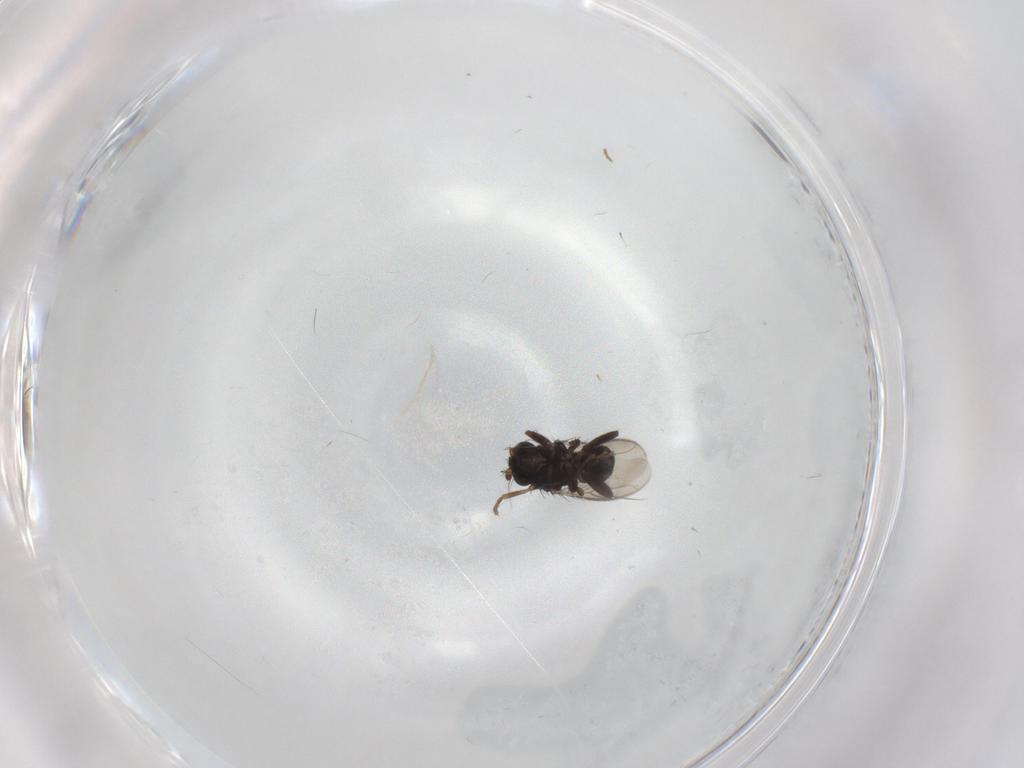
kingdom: Animalia
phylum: Arthropoda
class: Insecta
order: Diptera
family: Sphaeroceridae
